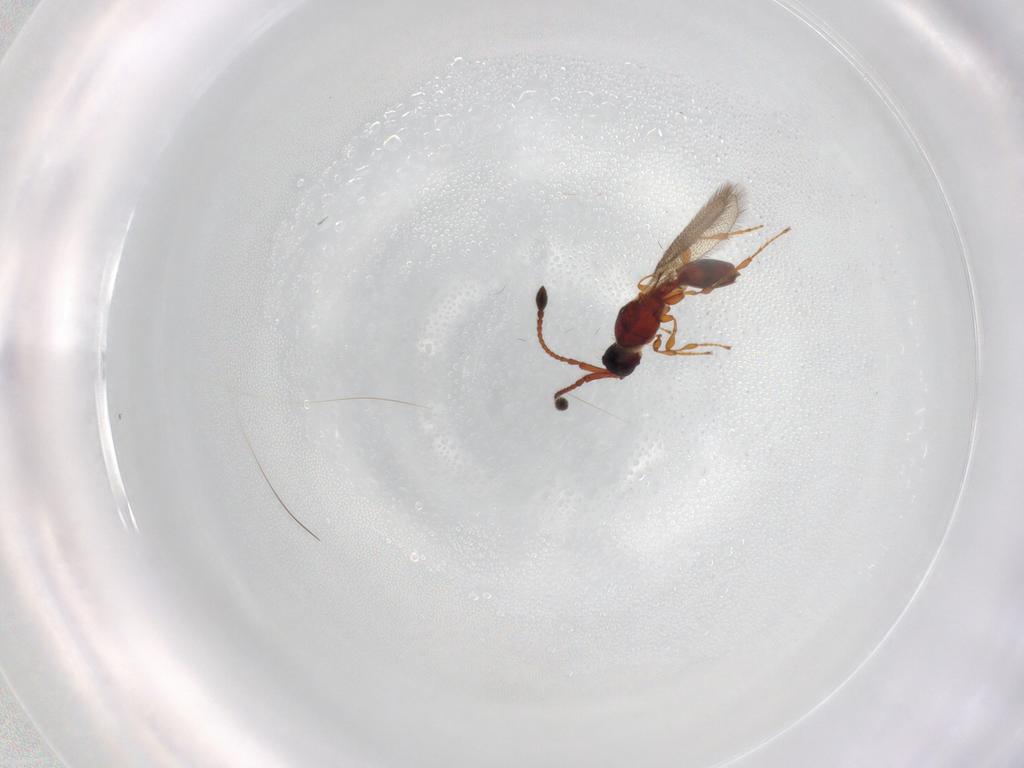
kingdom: Animalia
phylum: Arthropoda
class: Insecta
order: Hymenoptera
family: Diapriidae
